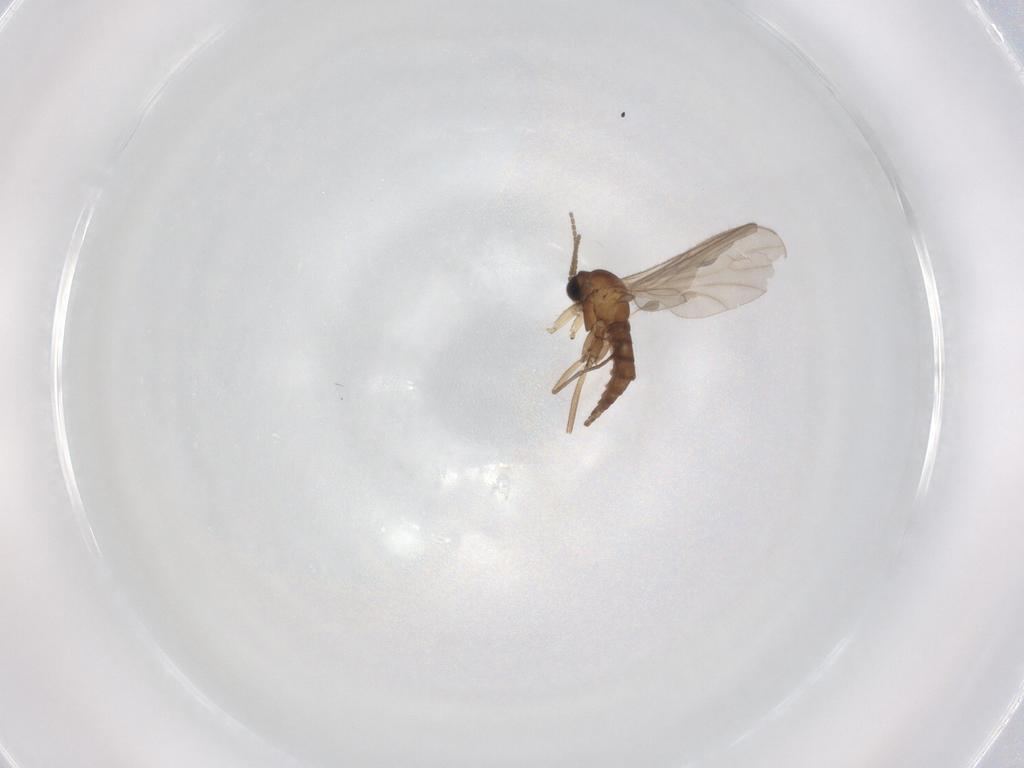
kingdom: Animalia
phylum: Arthropoda
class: Insecta
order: Diptera
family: Sciaridae
